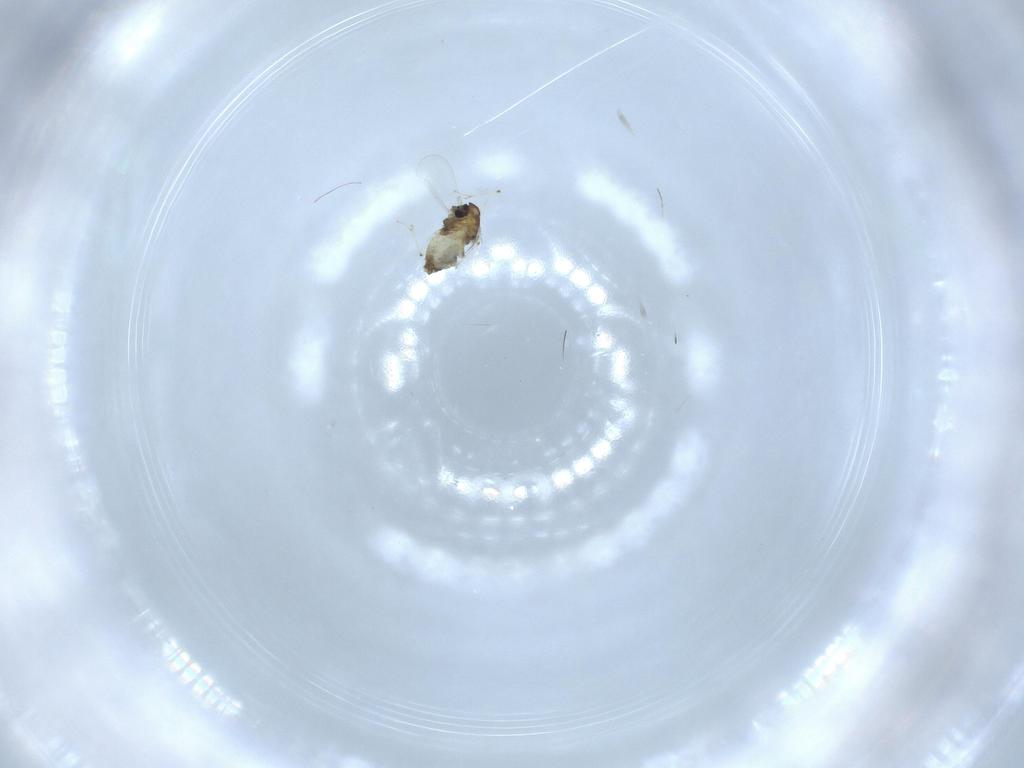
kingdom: Animalia
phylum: Arthropoda
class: Insecta
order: Diptera
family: Chironomidae
